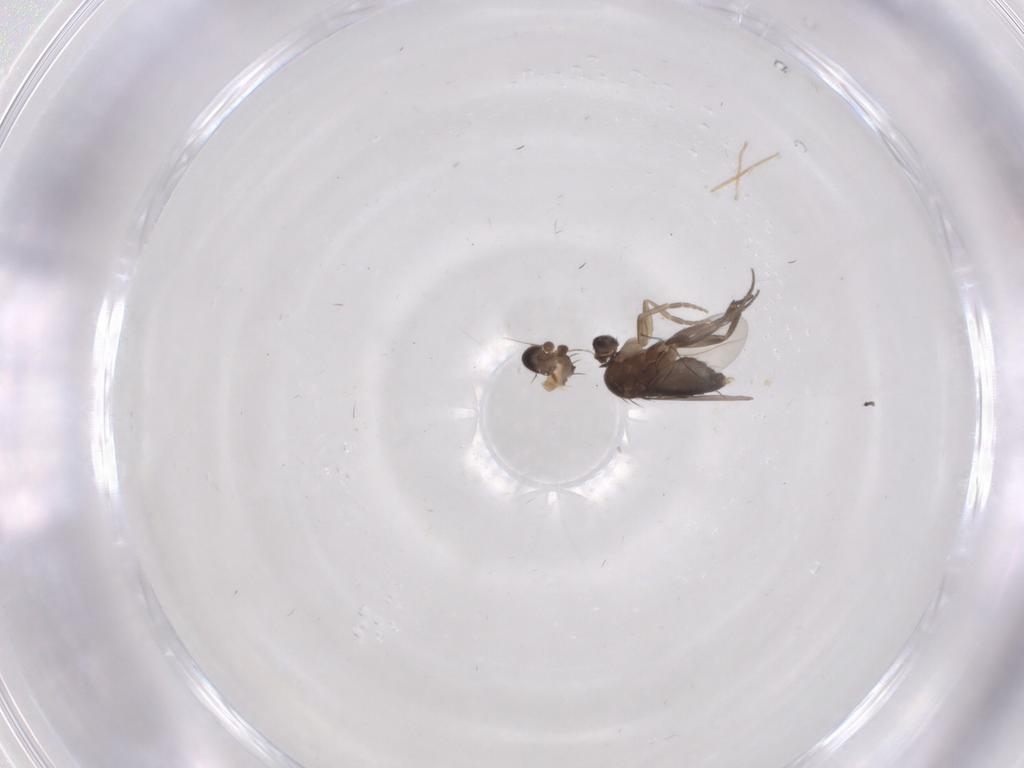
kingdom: Animalia
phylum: Arthropoda
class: Insecta
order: Diptera
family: Phoridae
